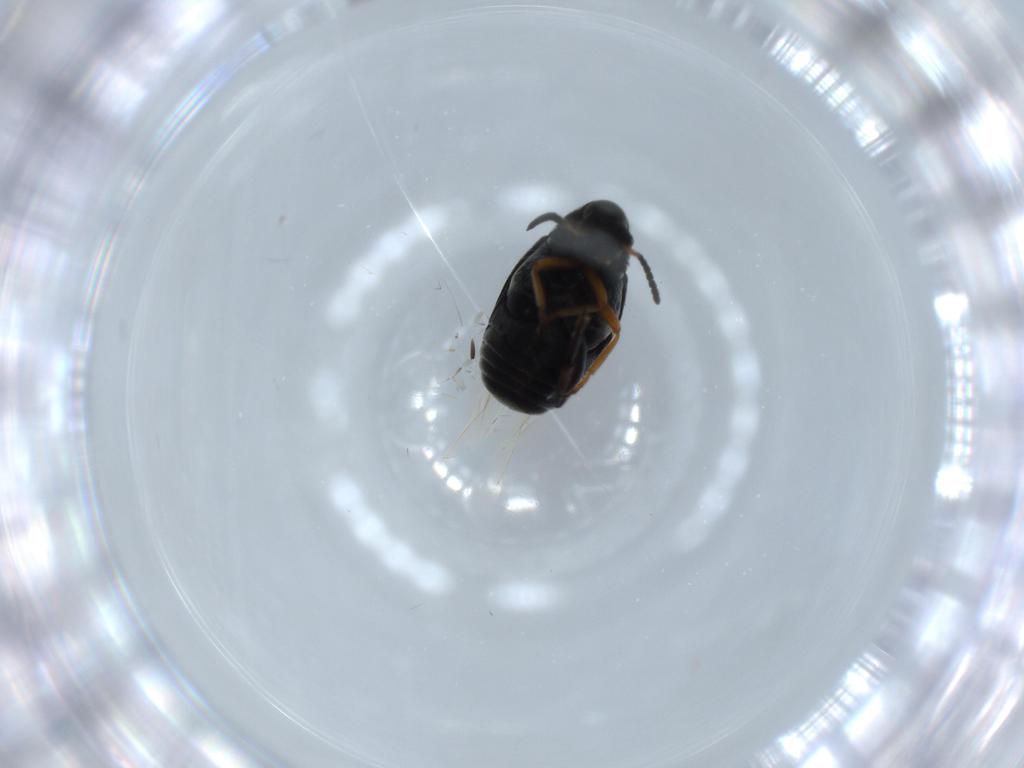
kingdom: Animalia
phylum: Arthropoda
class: Insecta
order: Coleoptera
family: Chrysomelidae
